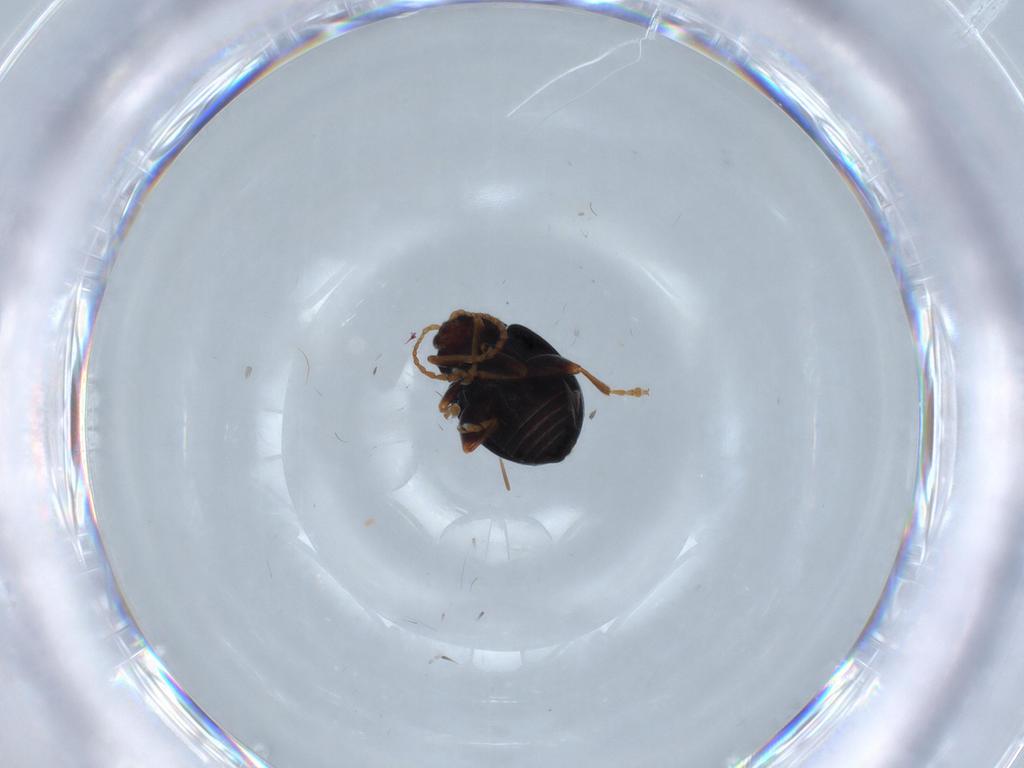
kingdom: Animalia
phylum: Arthropoda
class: Insecta
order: Coleoptera
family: Chrysomelidae
